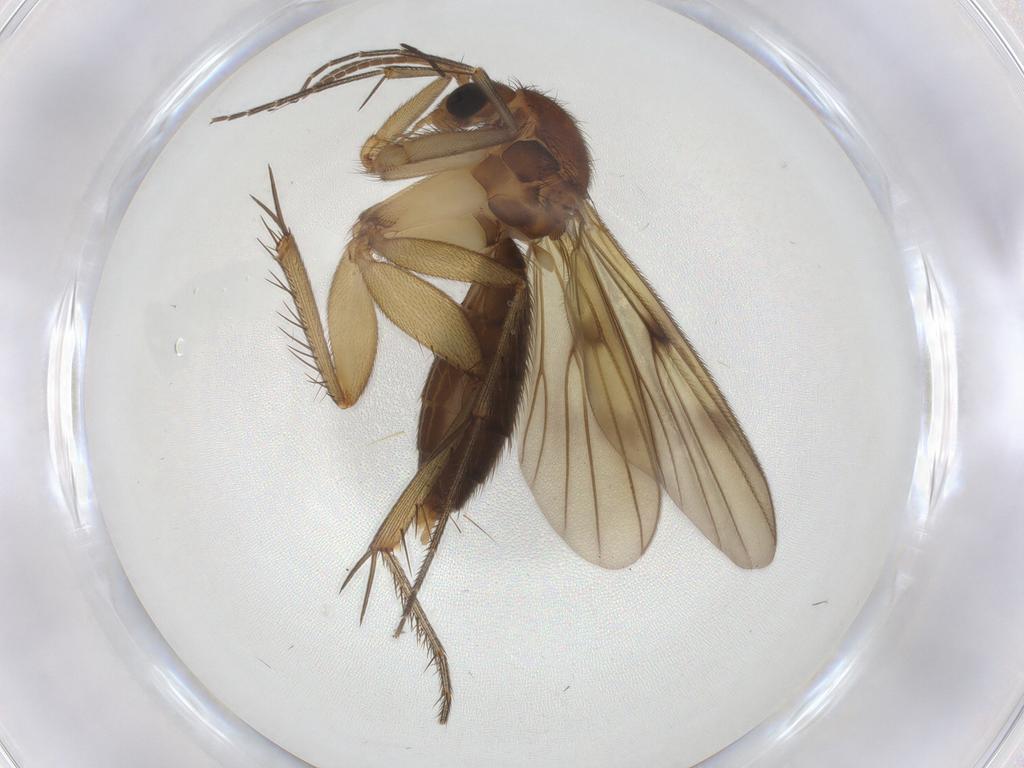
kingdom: Animalia
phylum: Arthropoda
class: Insecta
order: Diptera
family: Mycetophilidae
